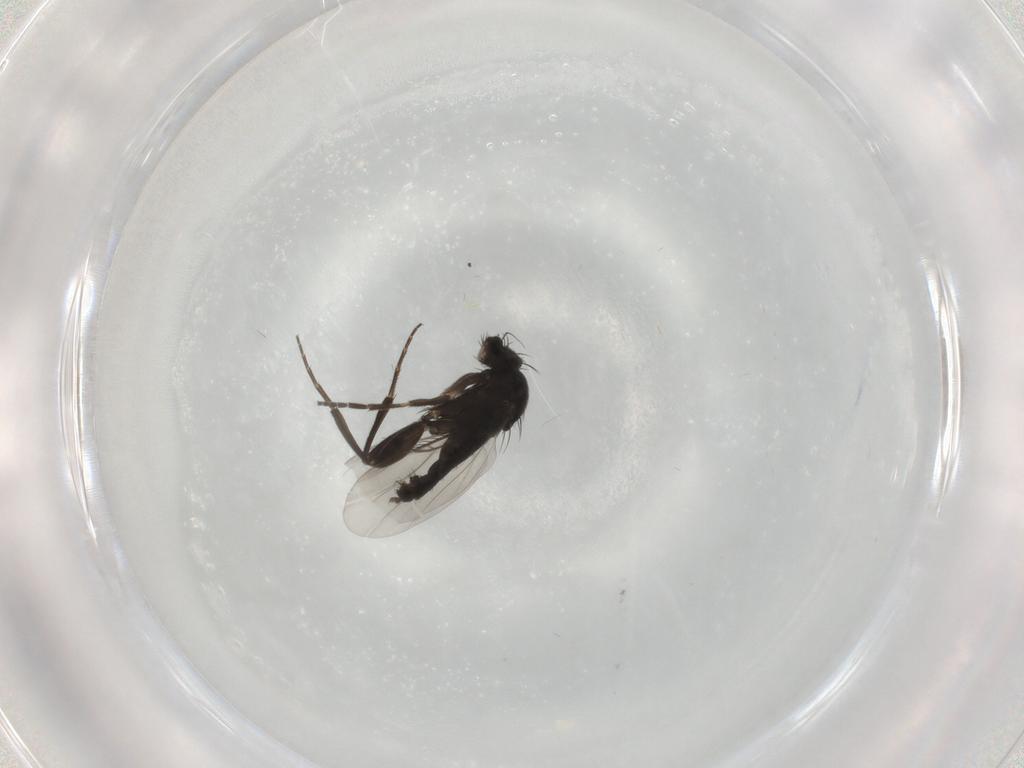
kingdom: Animalia
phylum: Arthropoda
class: Insecta
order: Diptera
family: Phoridae
